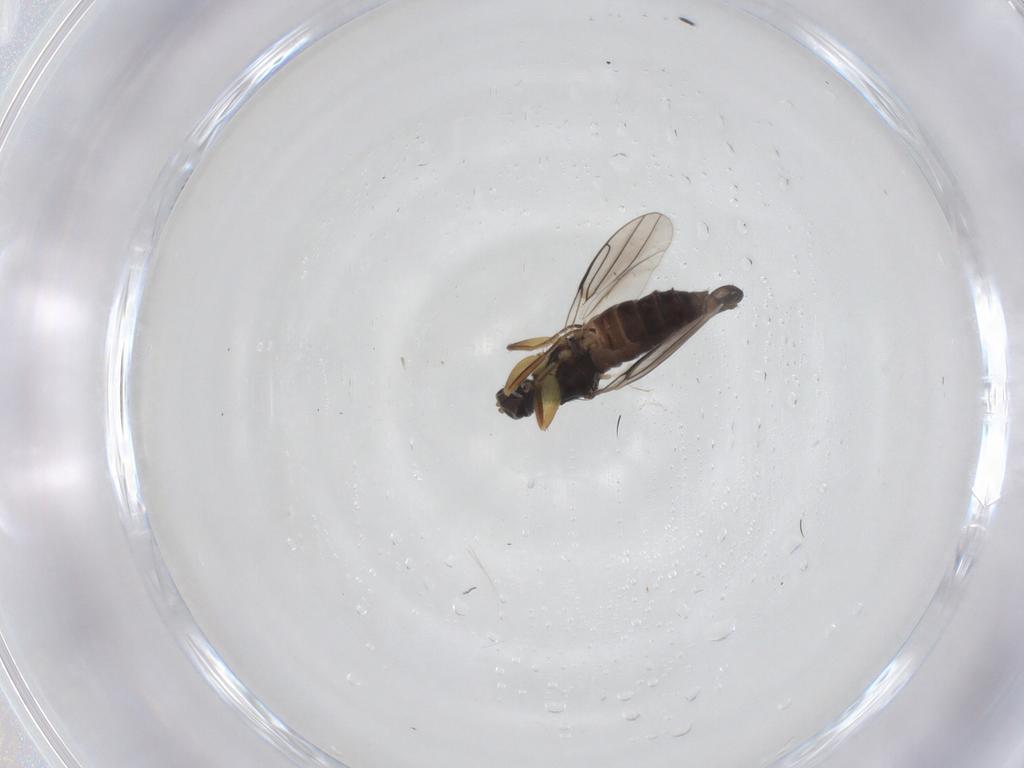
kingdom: Animalia
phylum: Arthropoda
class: Insecta
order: Diptera
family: Hybotidae
